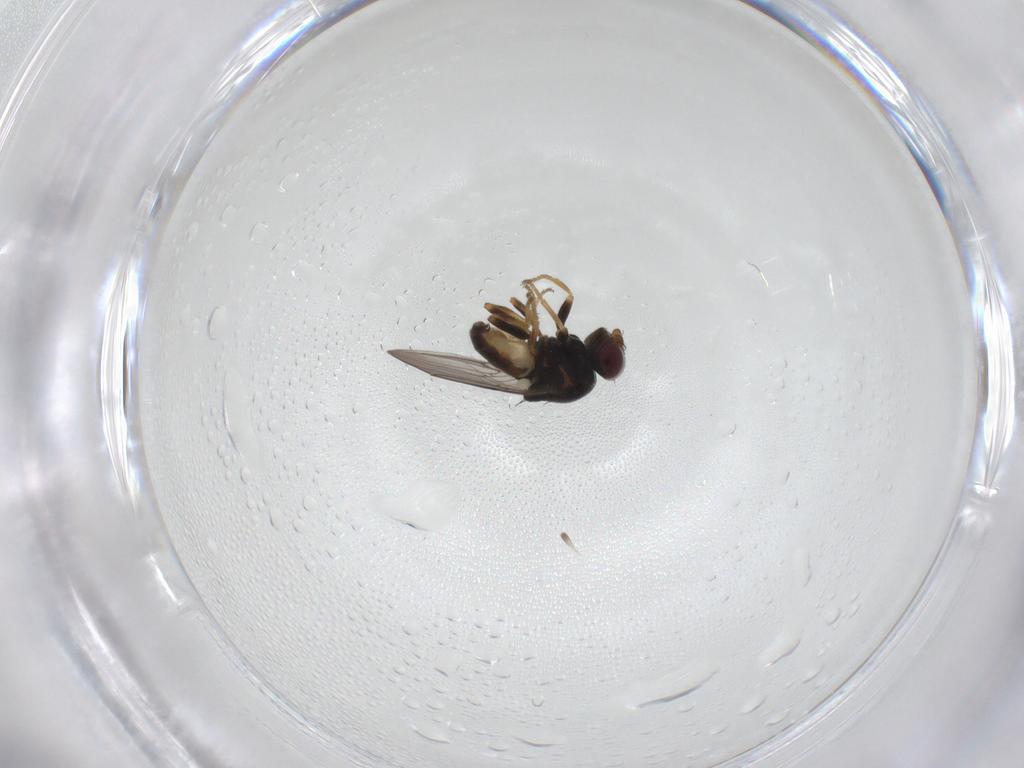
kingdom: Animalia
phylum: Arthropoda
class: Insecta
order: Diptera
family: Chloropidae
